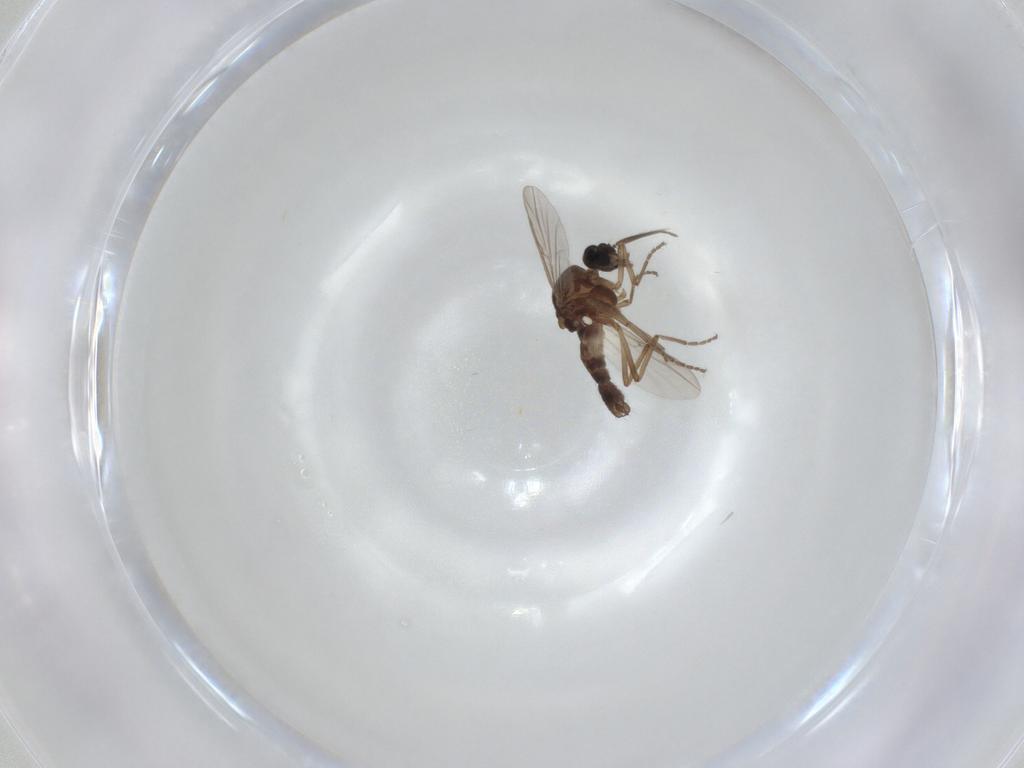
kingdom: Animalia
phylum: Arthropoda
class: Insecta
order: Diptera
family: Ceratopogonidae
